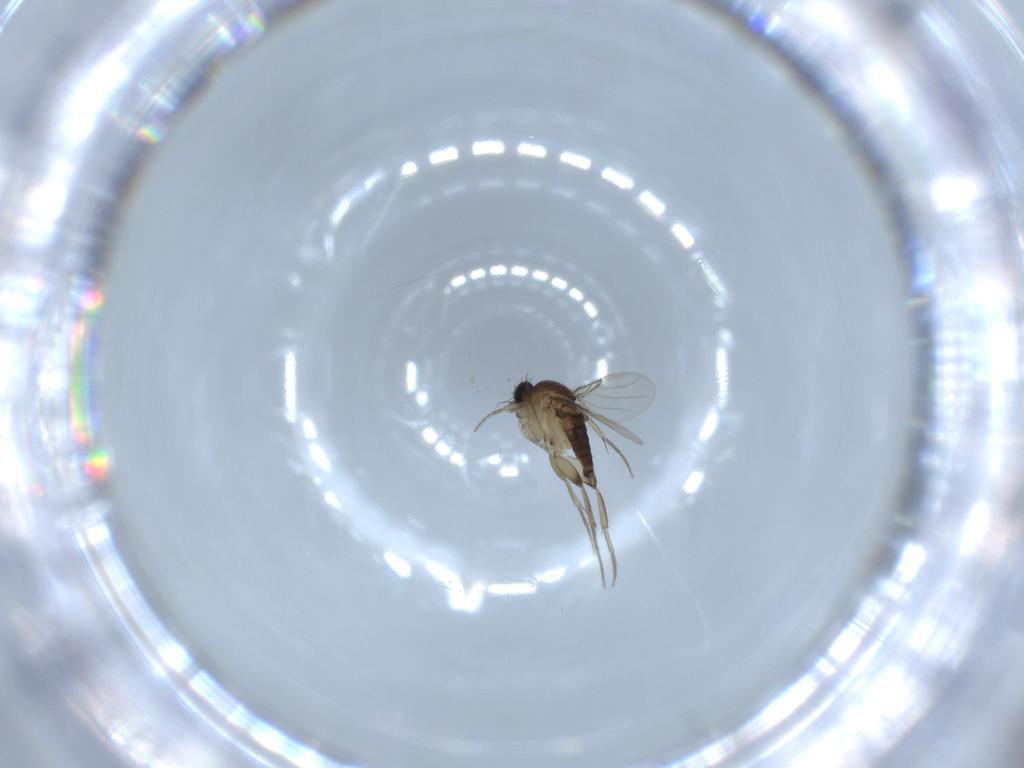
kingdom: Animalia
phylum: Arthropoda
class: Insecta
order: Diptera
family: Phoridae
